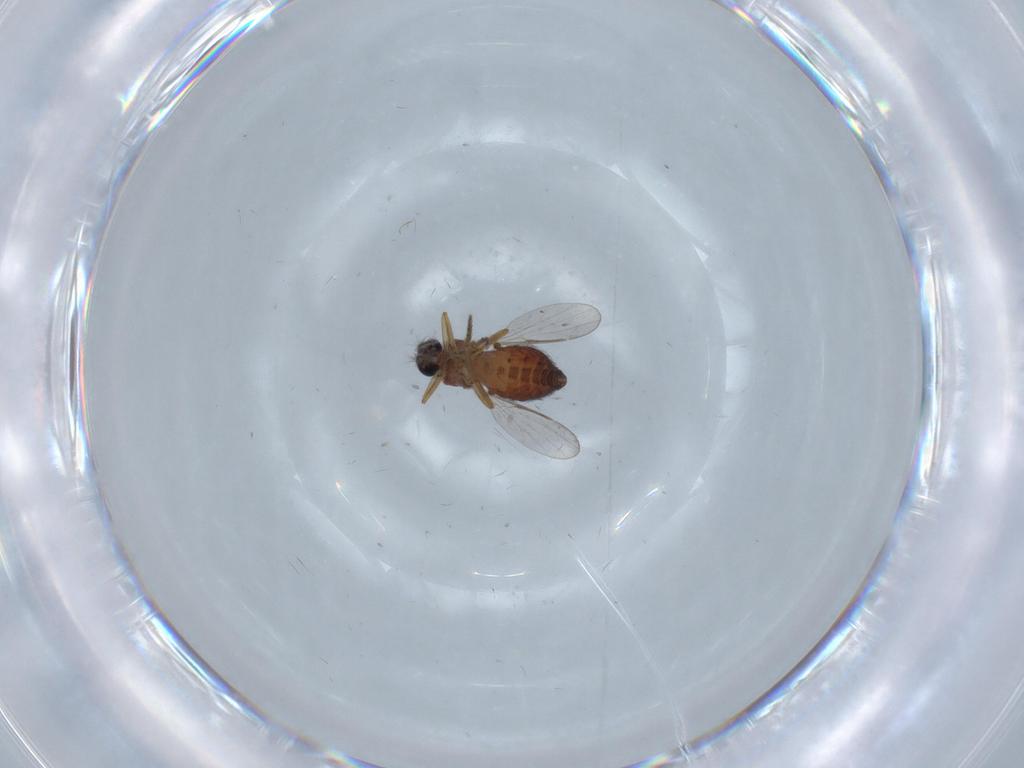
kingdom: Animalia
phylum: Arthropoda
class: Insecta
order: Diptera
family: Ceratopogonidae
